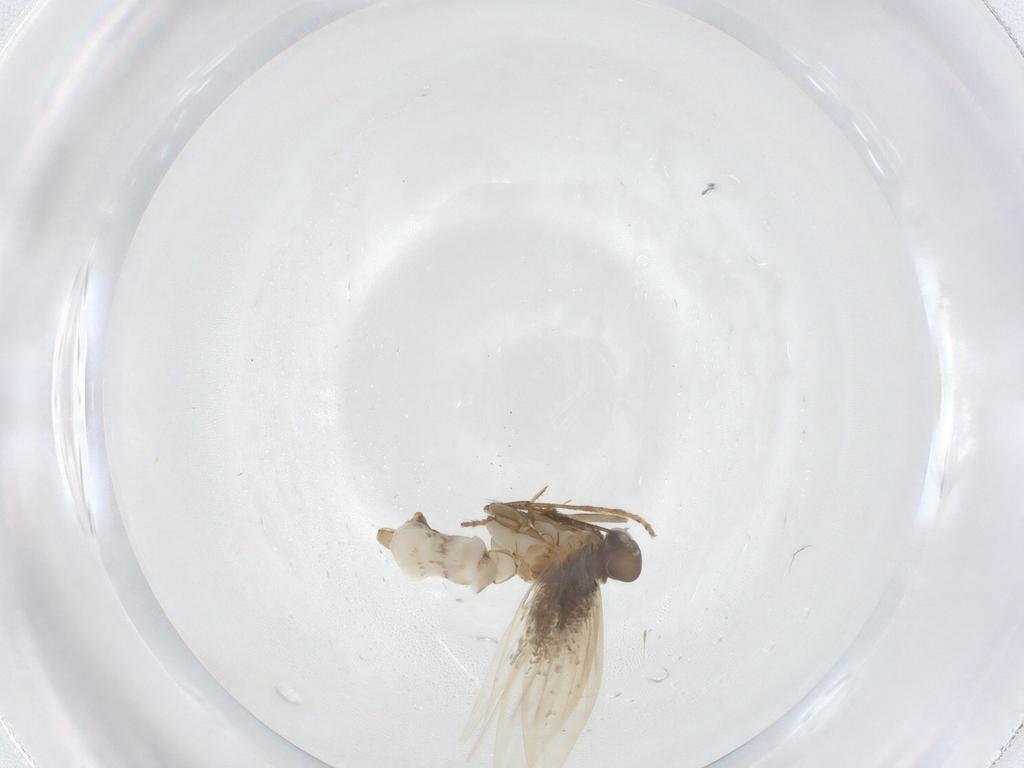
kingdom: Animalia
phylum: Arthropoda
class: Insecta
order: Lepidoptera
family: Tischeriidae
